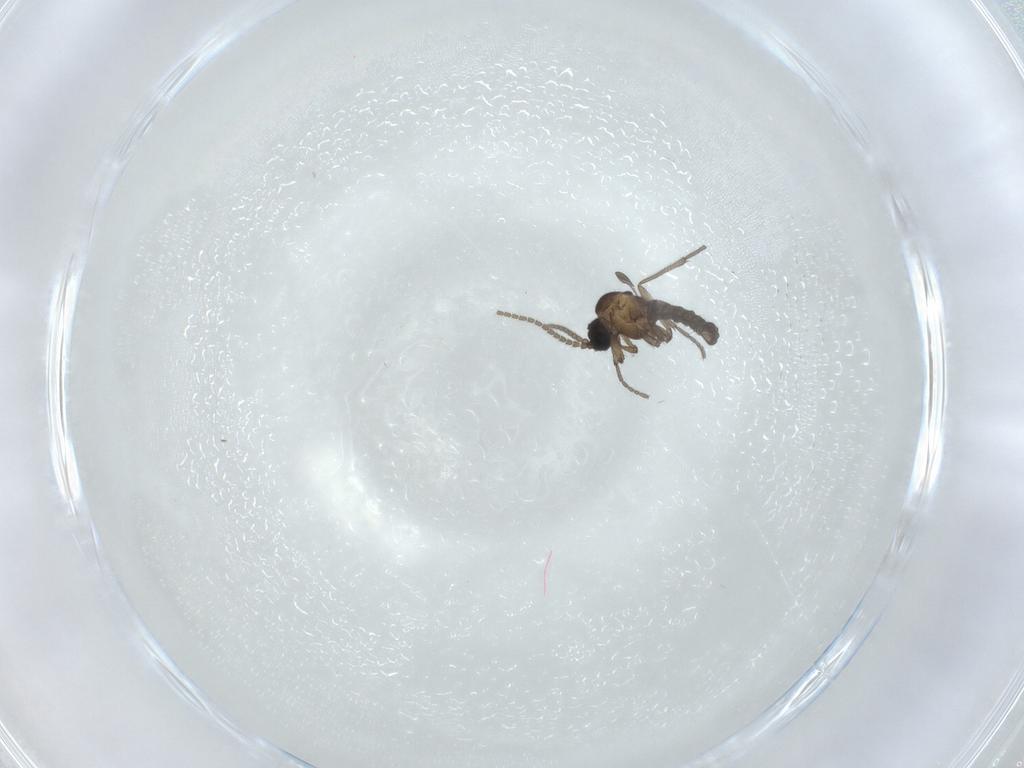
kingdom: Animalia
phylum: Arthropoda
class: Insecta
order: Diptera
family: Sciaridae
